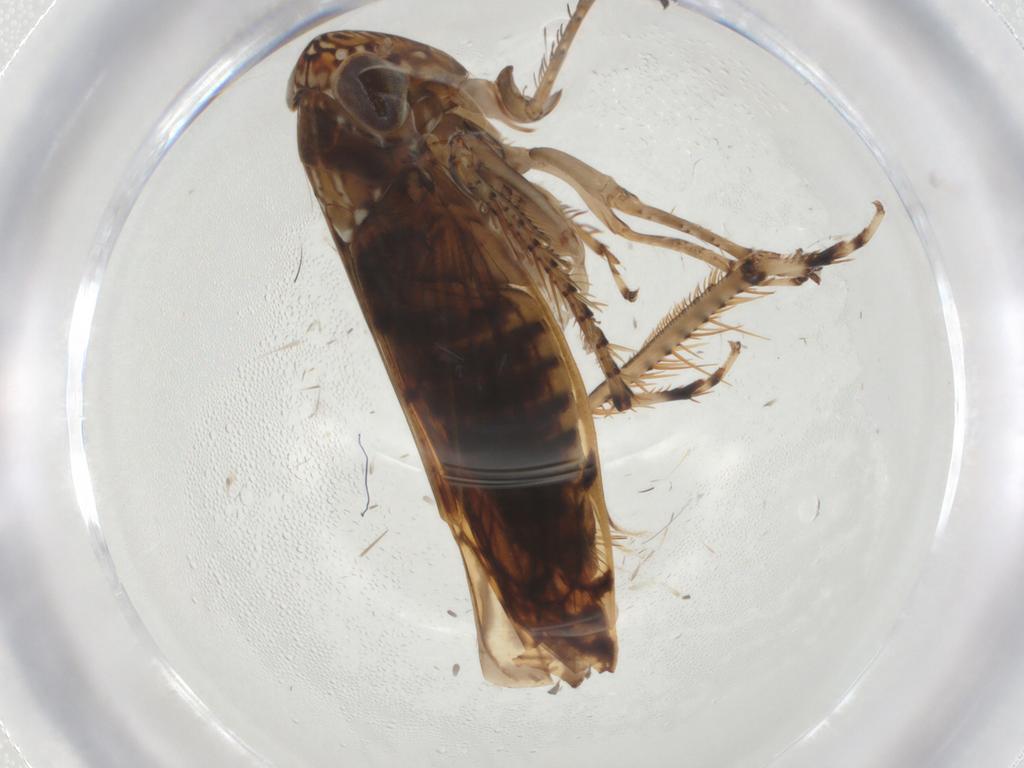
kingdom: Animalia
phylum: Arthropoda
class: Insecta
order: Hemiptera
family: Cicadellidae
